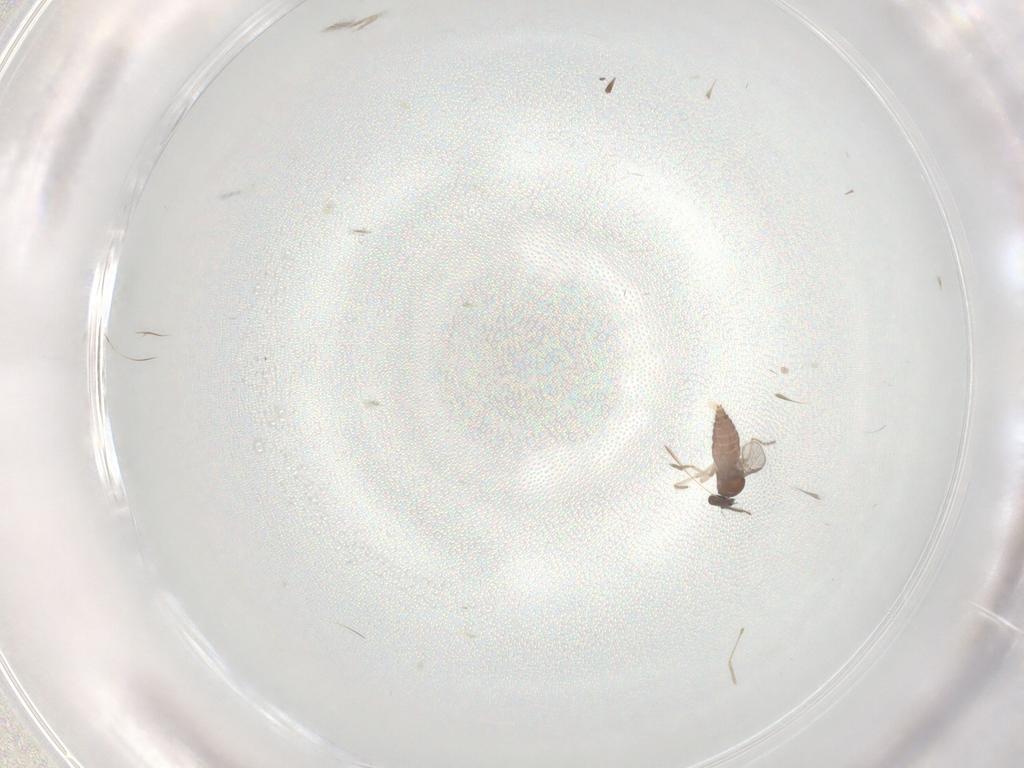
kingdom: Animalia
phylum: Arthropoda
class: Insecta
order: Diptera
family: Ceratopogonidae
